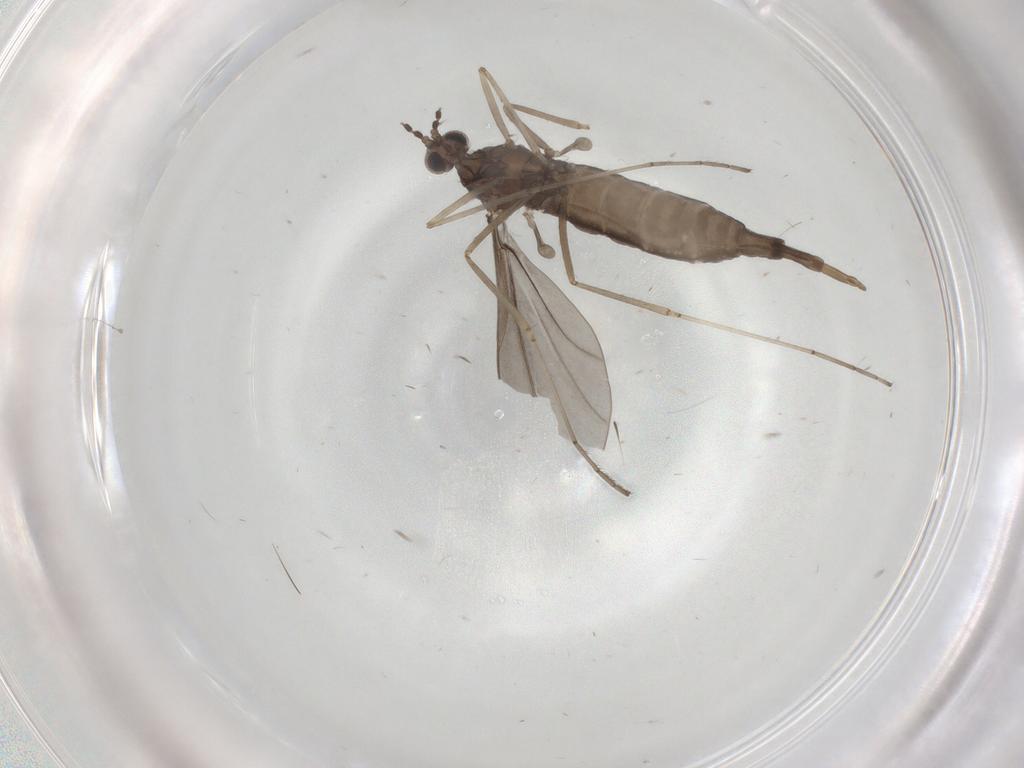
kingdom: Animalia
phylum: Arthropoda
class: Insecta
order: Diptera
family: Cecidomyiidae
